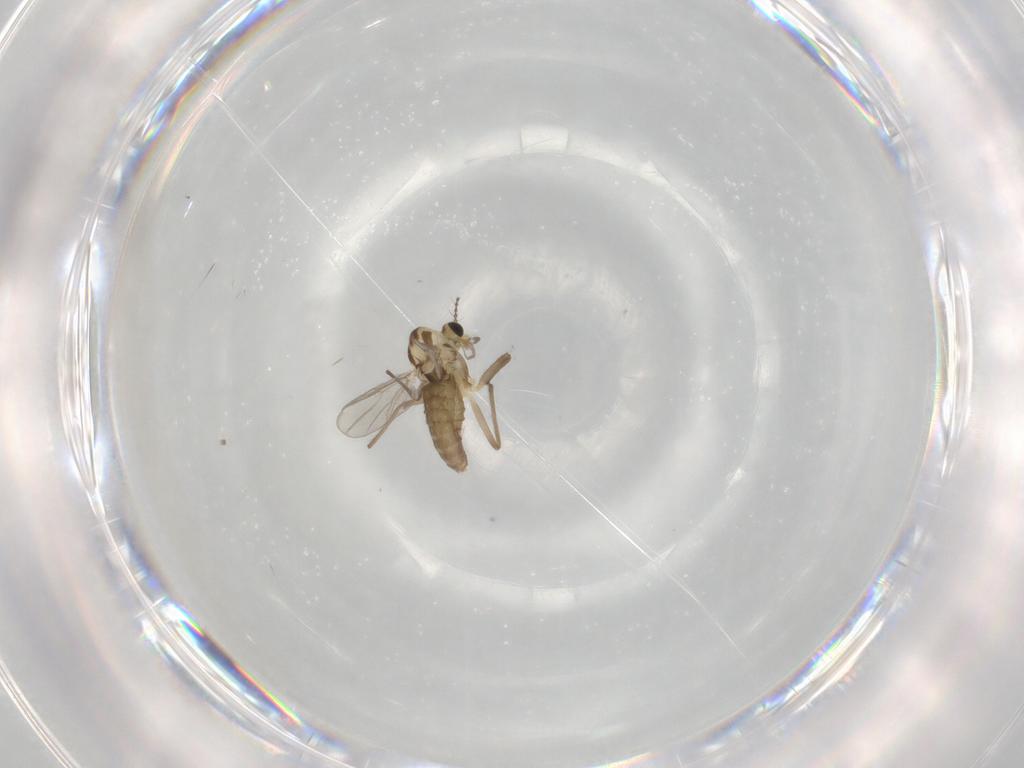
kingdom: Animalia
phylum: Arthropoda
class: Insecta
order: Diptera
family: Chironomidae
